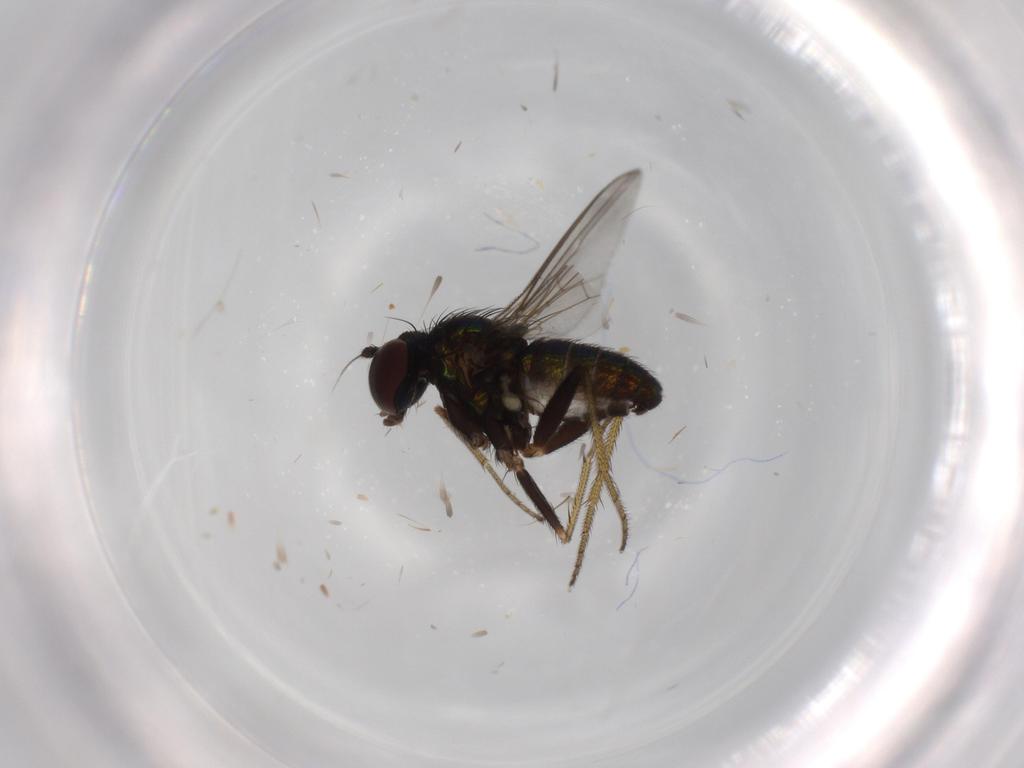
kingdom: Animalia
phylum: Arthropoda
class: Insecta
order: Diptera
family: Dolichopodidae
